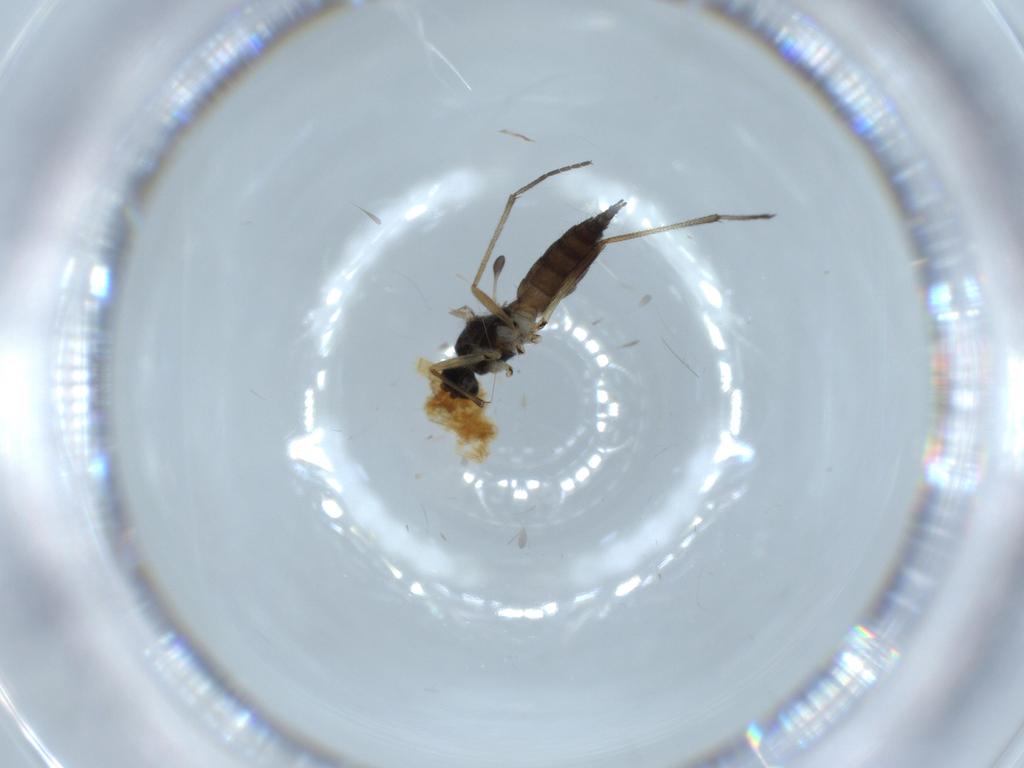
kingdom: Animalia
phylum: Arthropoda
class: Insecta
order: Diptera
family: Sciaridae
